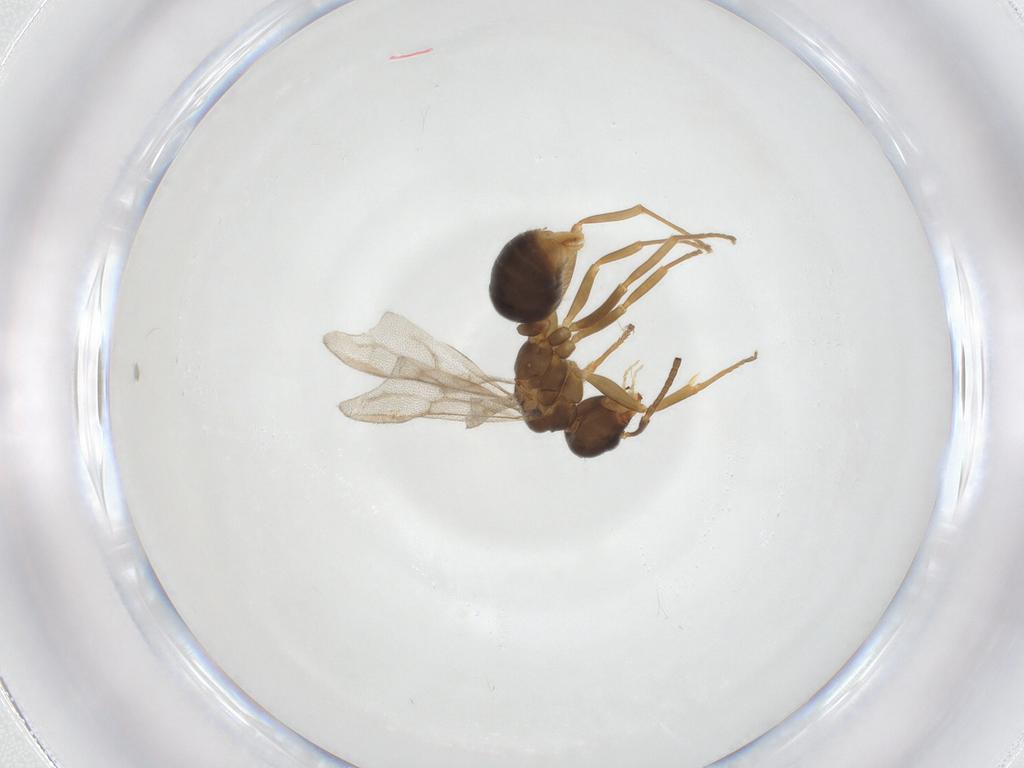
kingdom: Animalia
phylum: Arthropoda
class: Insecta
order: Hymenoptera
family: Formicidae
